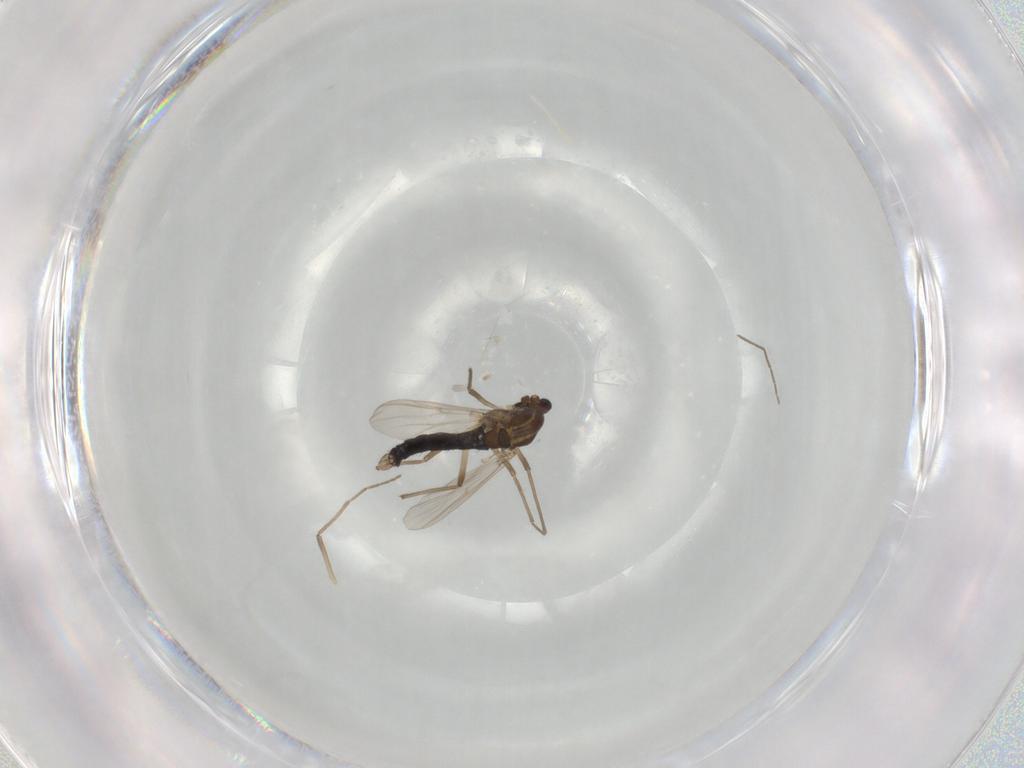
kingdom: Animalia
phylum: Arthropoda
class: Insecta
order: Diptera
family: Chironomidae
